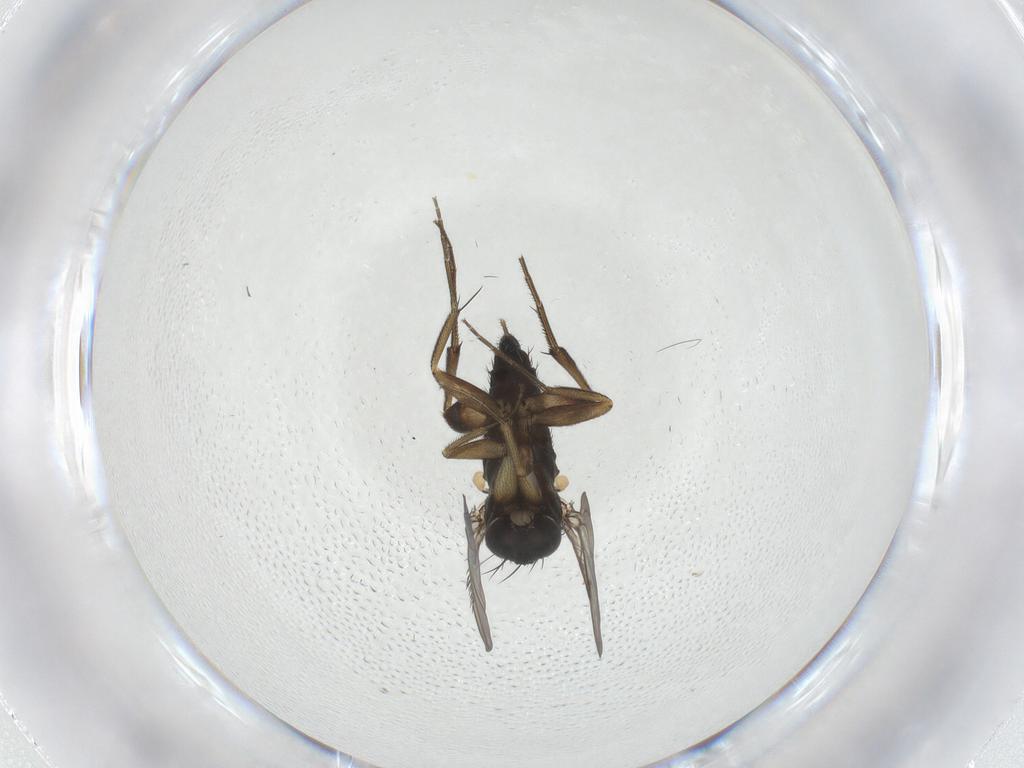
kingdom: Animalia
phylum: Arthropoda
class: Insecta
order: Diptera
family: Phoridae
